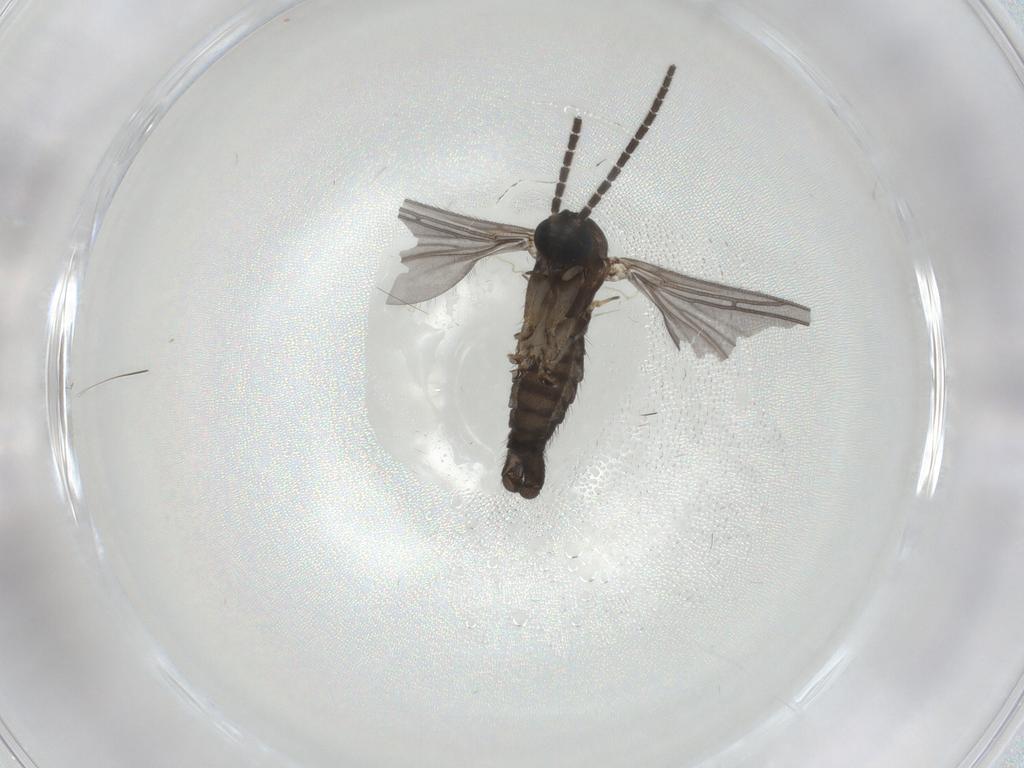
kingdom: Animalia
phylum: Arthropoda
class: Insecta
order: Diptera
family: Sciaridae
